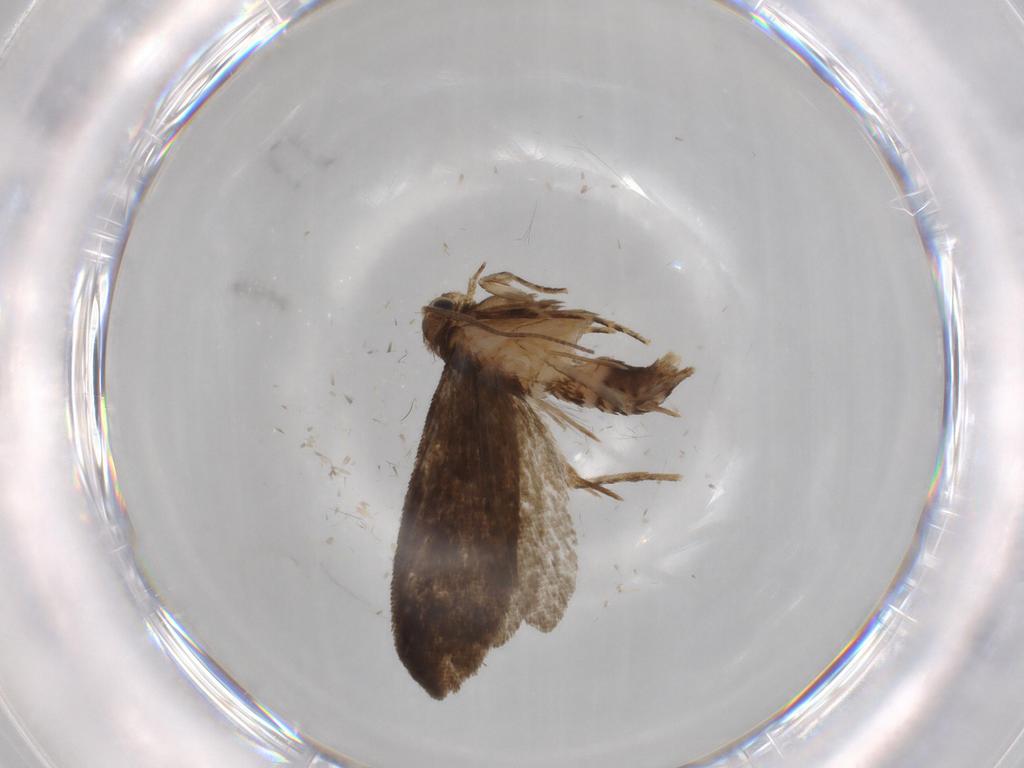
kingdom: Animalia
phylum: Arthropoda
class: Insecta
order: Lepidoptera
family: Tineidae
